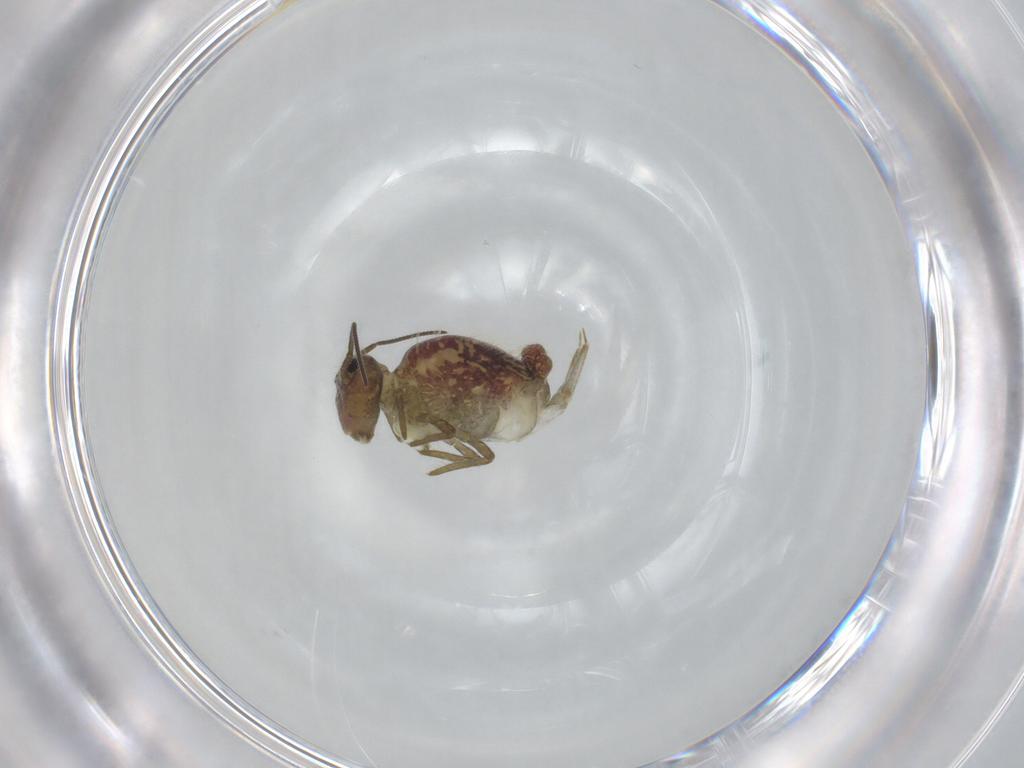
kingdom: Animalia
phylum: Arthropoda
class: Collembola
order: Symphypleona
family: Sminthuridae
